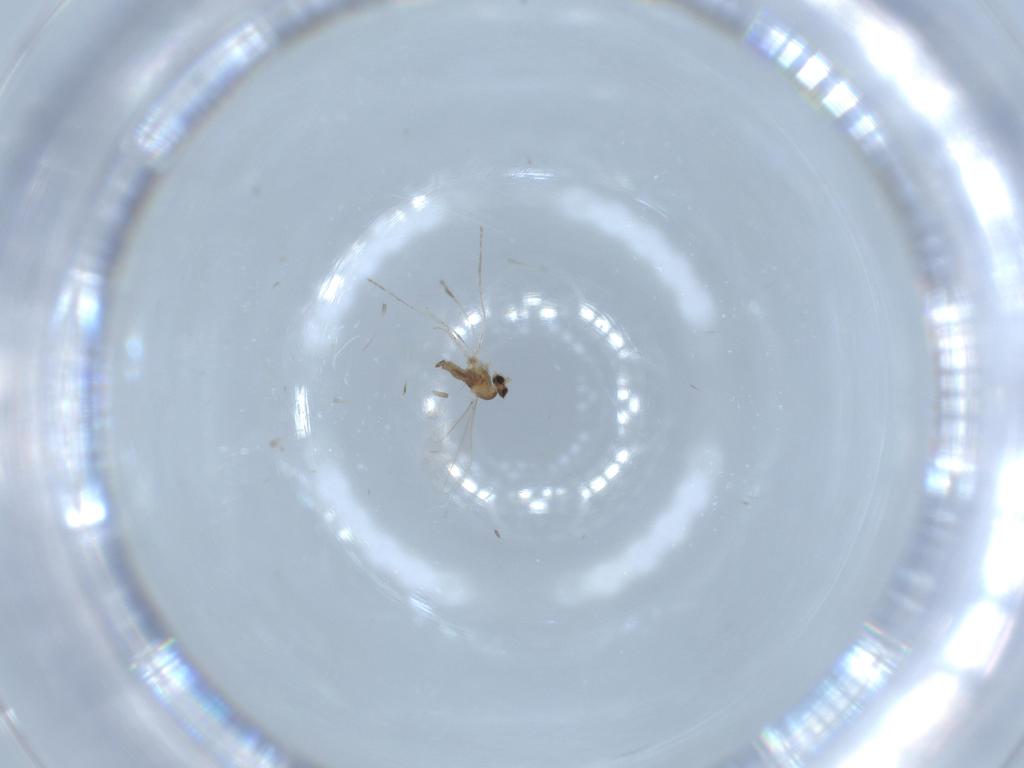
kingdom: Animalia
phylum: Arthropoda
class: Insecta
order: Diptera
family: Cecidomyiidae
